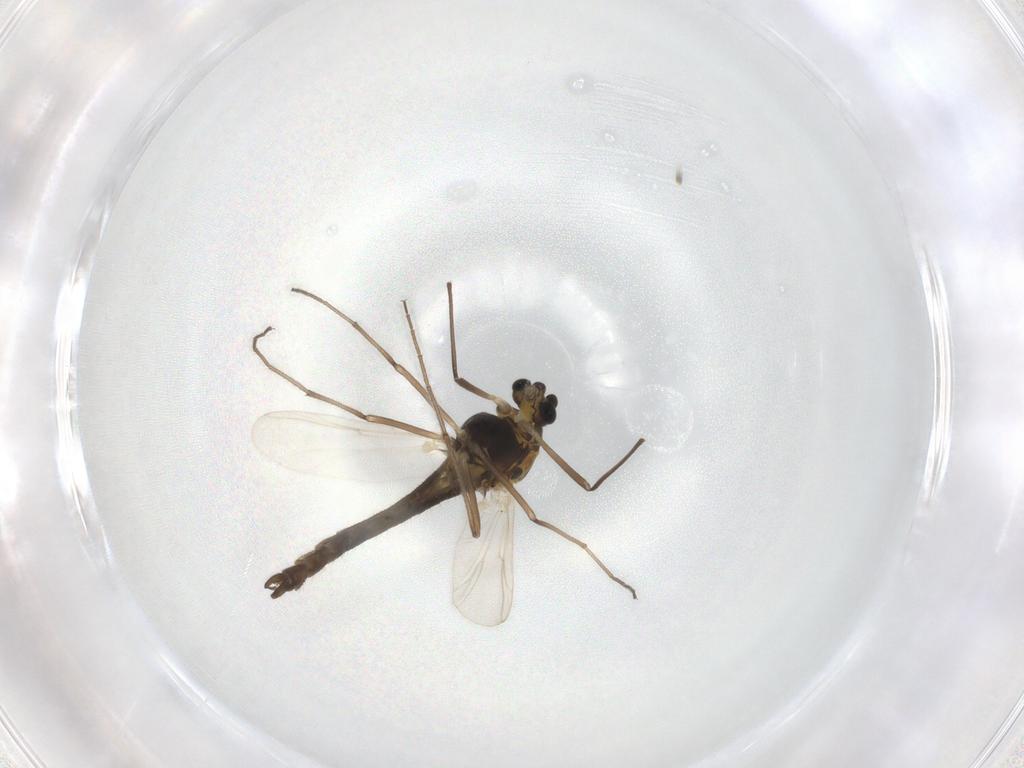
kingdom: Animalia
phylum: Arthropoda
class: Insecta
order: Diptera
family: Chironomidae
